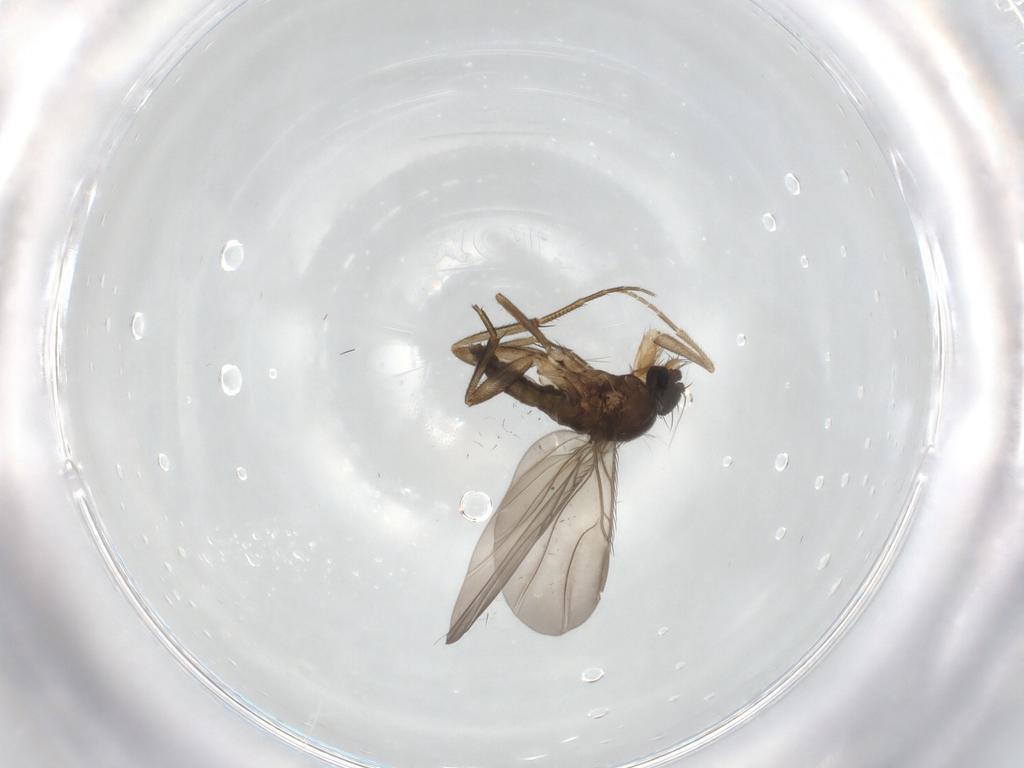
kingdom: Animalia
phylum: Arthropoda
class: Insecta
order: Diptera
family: Phoridae
